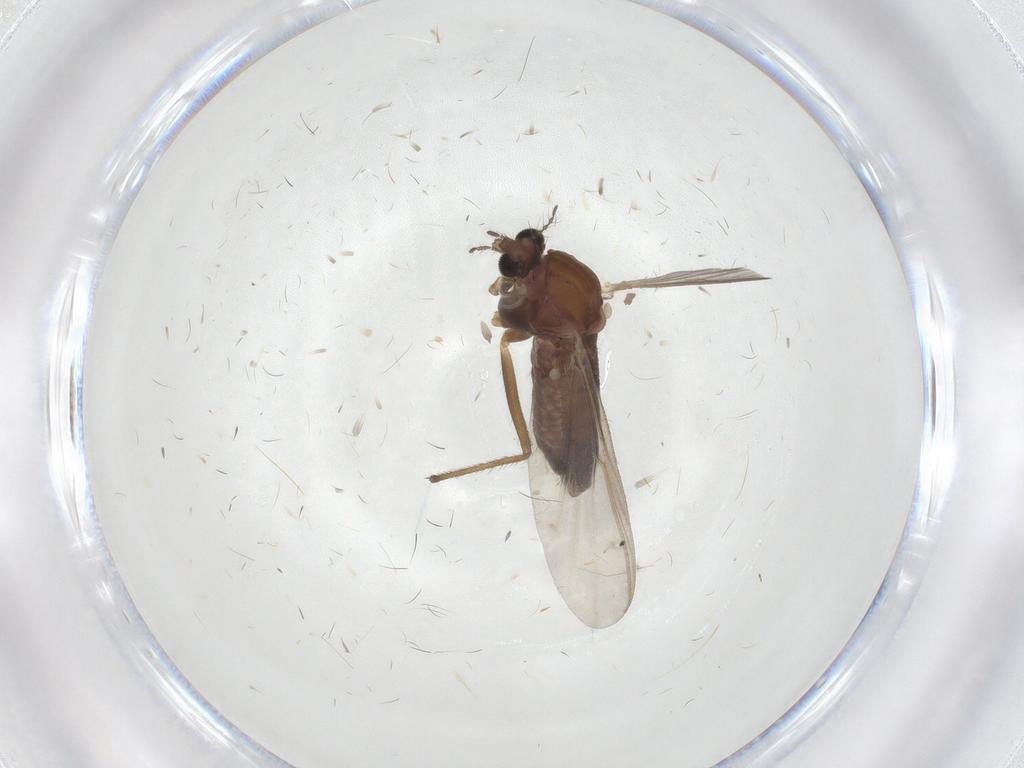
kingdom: Animalia
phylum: Arthropoda
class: Insecta
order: Diptera
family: Chironomidae
